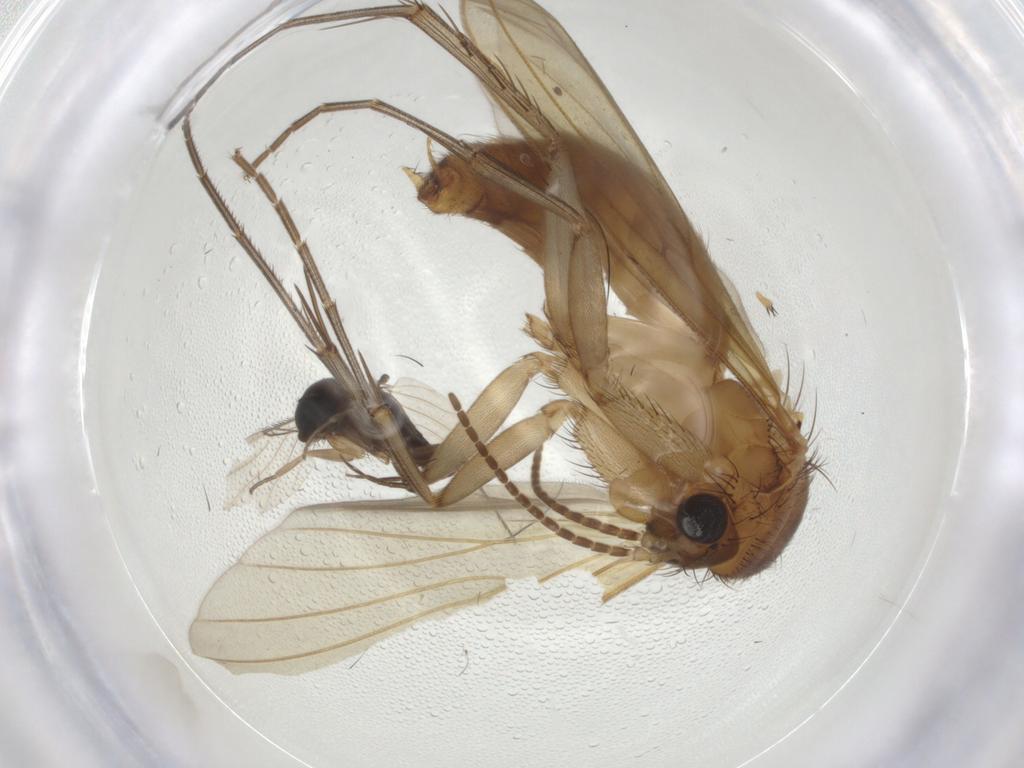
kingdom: Animalia
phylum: Arthropoda
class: Insecta
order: Diptera
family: Mycetophilidae
